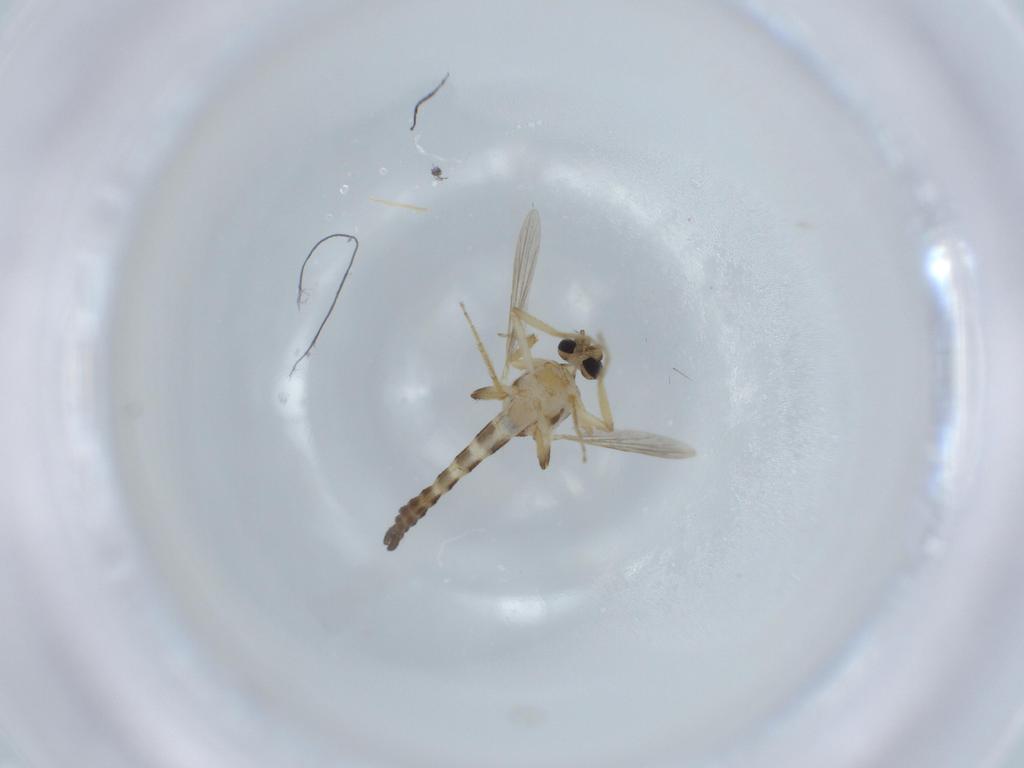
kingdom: Animalia
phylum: Arthropoda
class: Insecta
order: Diptera
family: Ceratopogonidae
